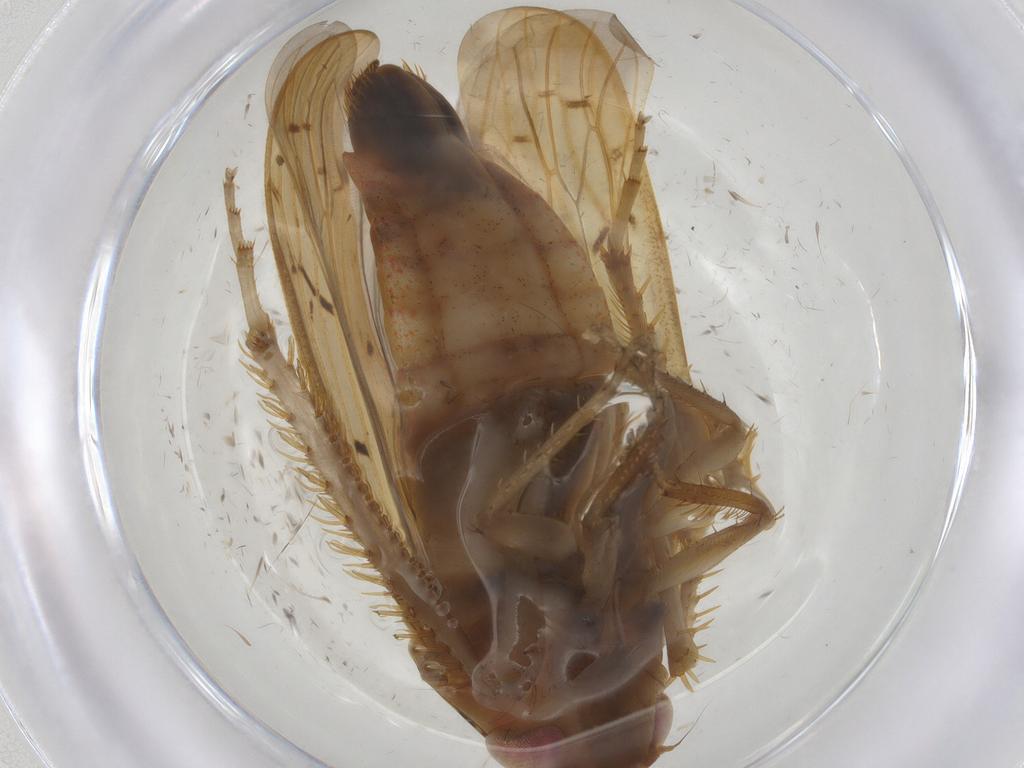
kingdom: Animalia
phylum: Arthropoda
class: Insecta
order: Hemiptera
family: Cicadellidae
